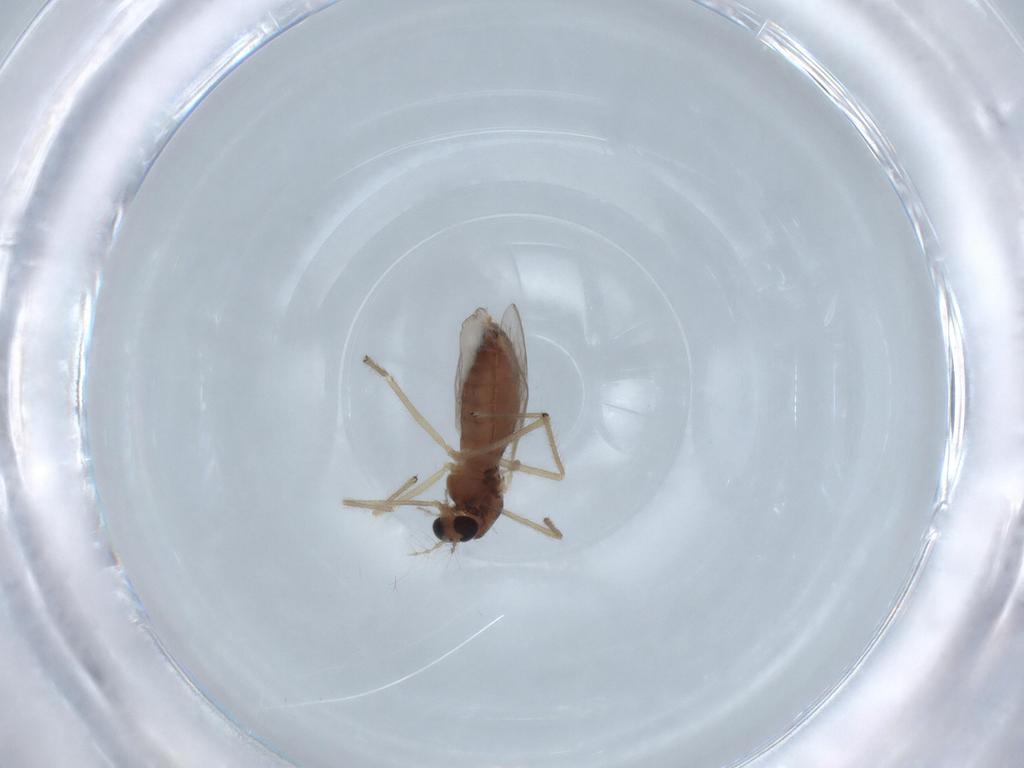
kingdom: Animalia
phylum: Arthropoda
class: Insecta
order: Diptera
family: Chironomidae
